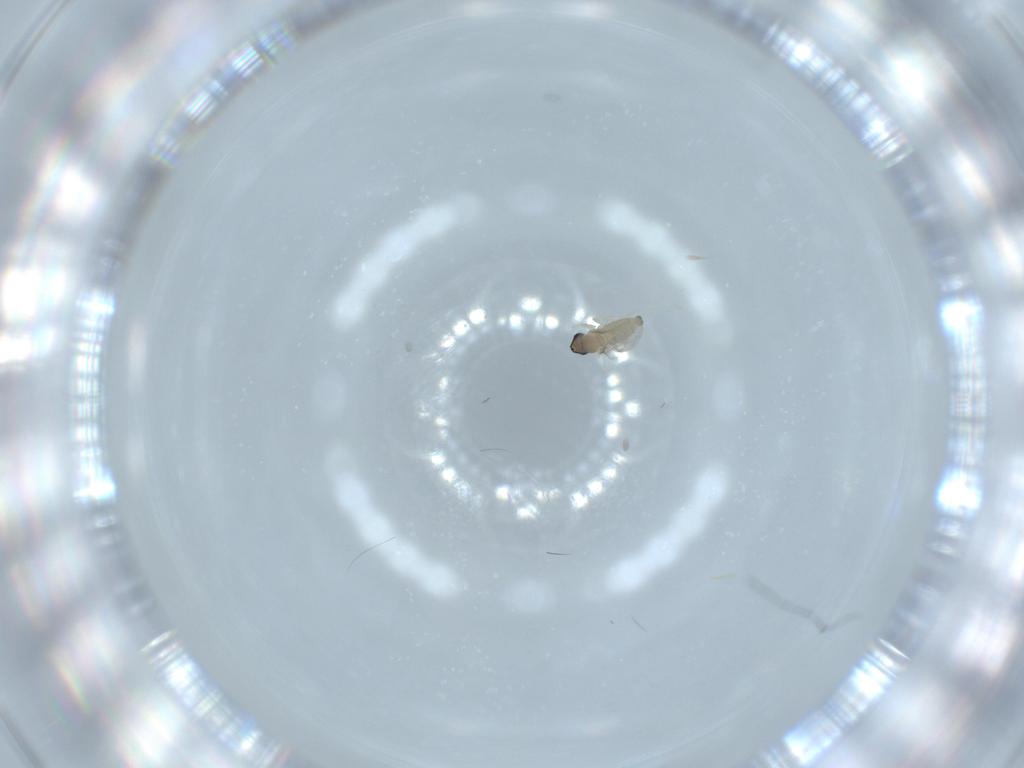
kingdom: Animalia
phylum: Arthropoda
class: Insecta
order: Diptera
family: Cecidomyiidae
